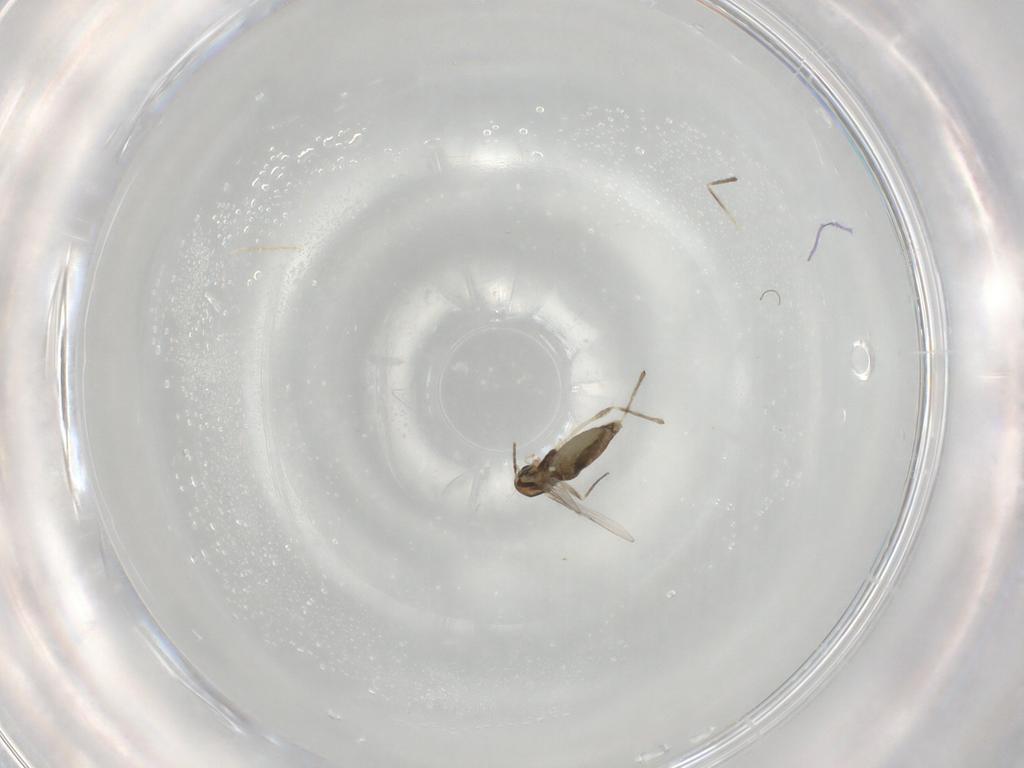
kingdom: Animalia
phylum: Arthropoda
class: Insecta
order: Diptera
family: Chironomidae
